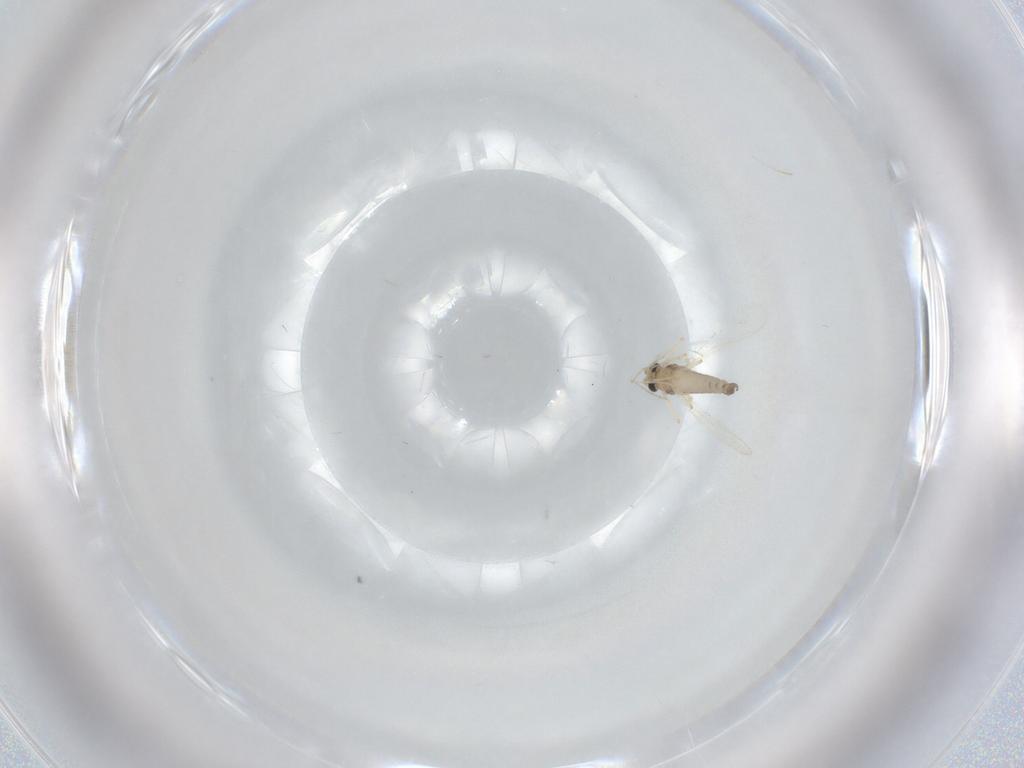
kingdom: Animalia
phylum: Arthropoda
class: Insecta
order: Diptera
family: Chironomidae
